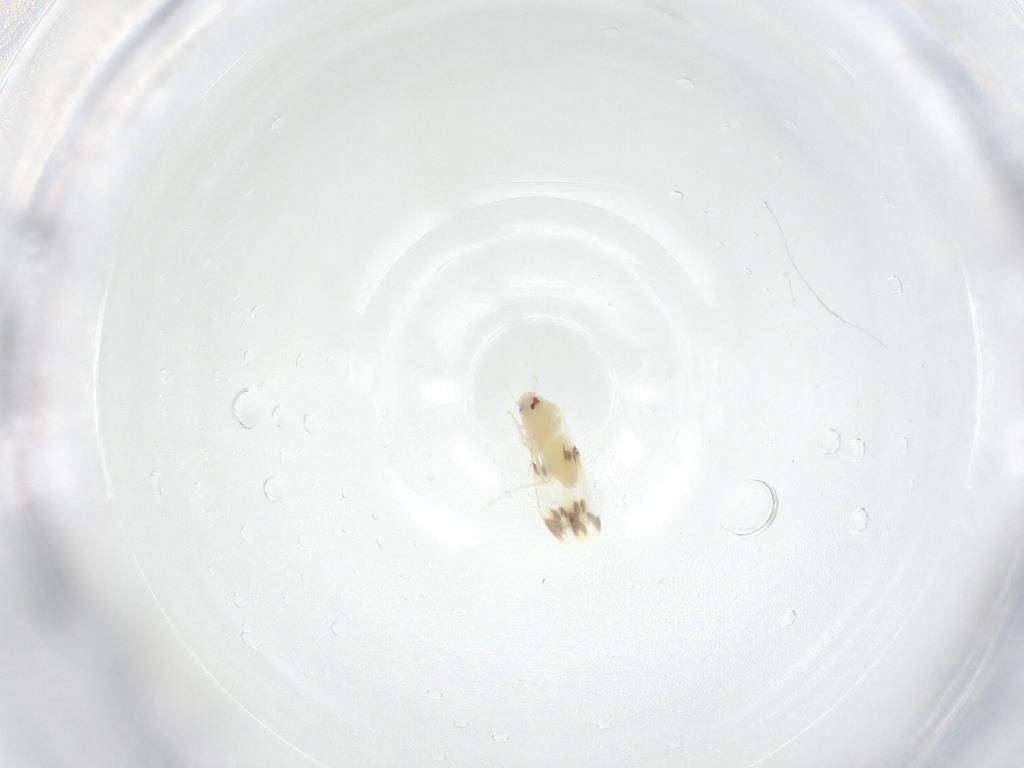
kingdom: Animalia
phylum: Arthropoda
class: Insecta
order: Hemiptera
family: Aleyrodidae
